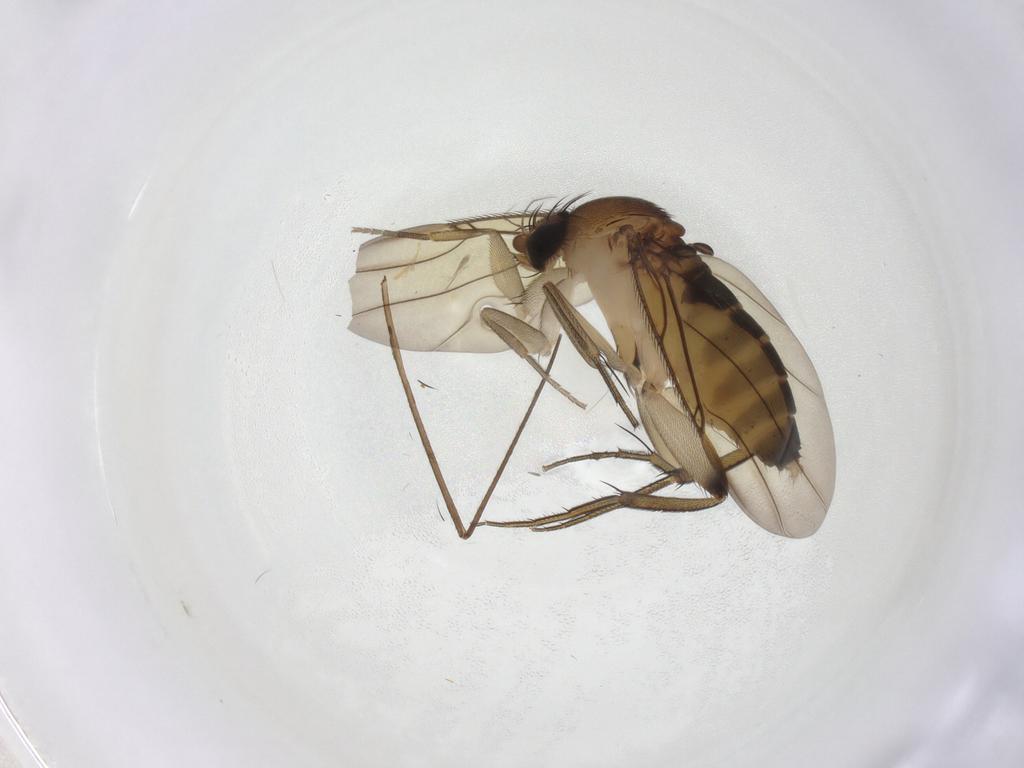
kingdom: Animalia
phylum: Arthropoda
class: Insecta
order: Diptera
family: Phoridae
